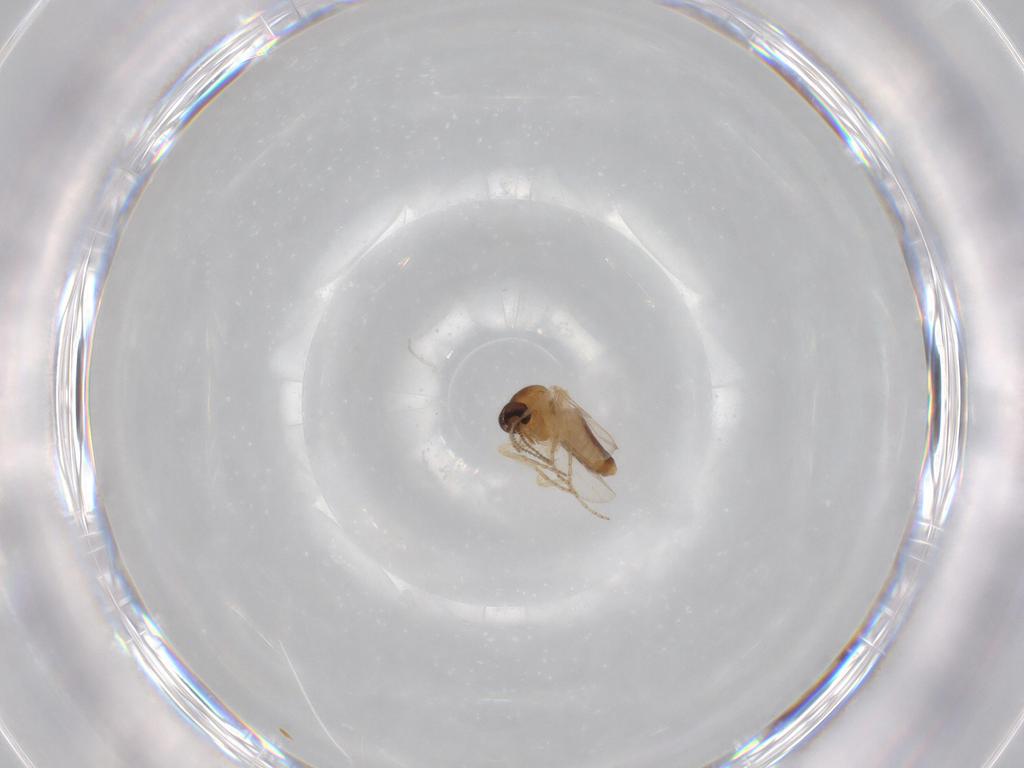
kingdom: Animalia
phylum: Arthropoda
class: Insecta
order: Diptera
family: Ceratopogonidae
